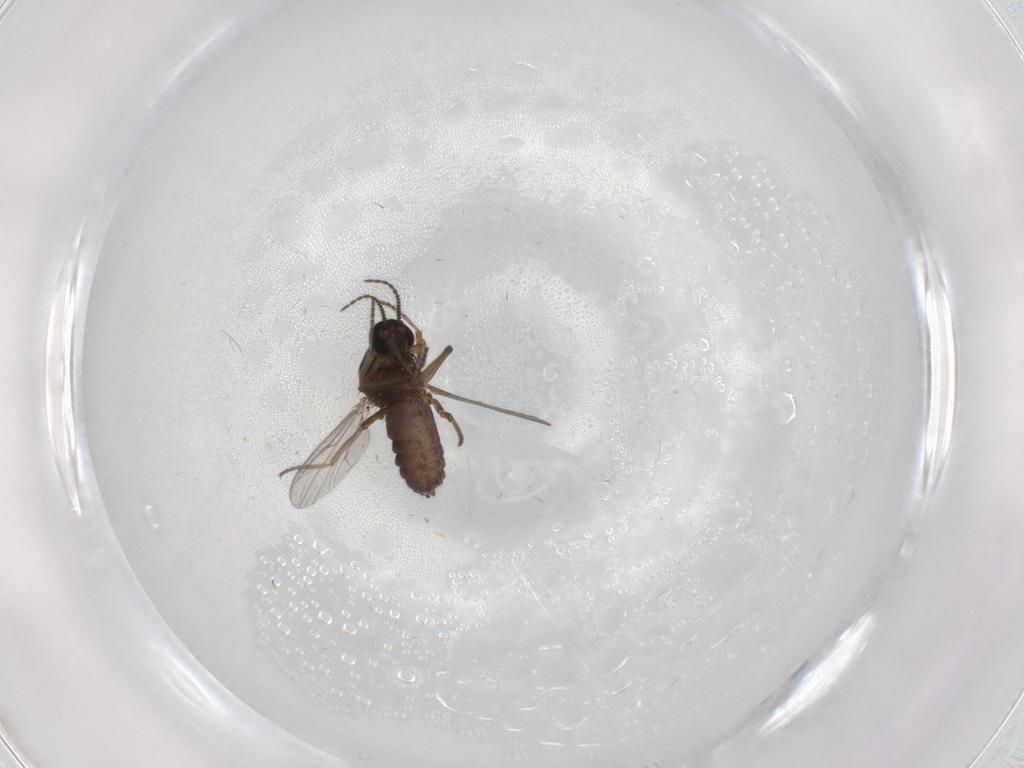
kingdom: Animalia
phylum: Arthropoda
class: Insecta
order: Diptera
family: Ceratopogonidae
